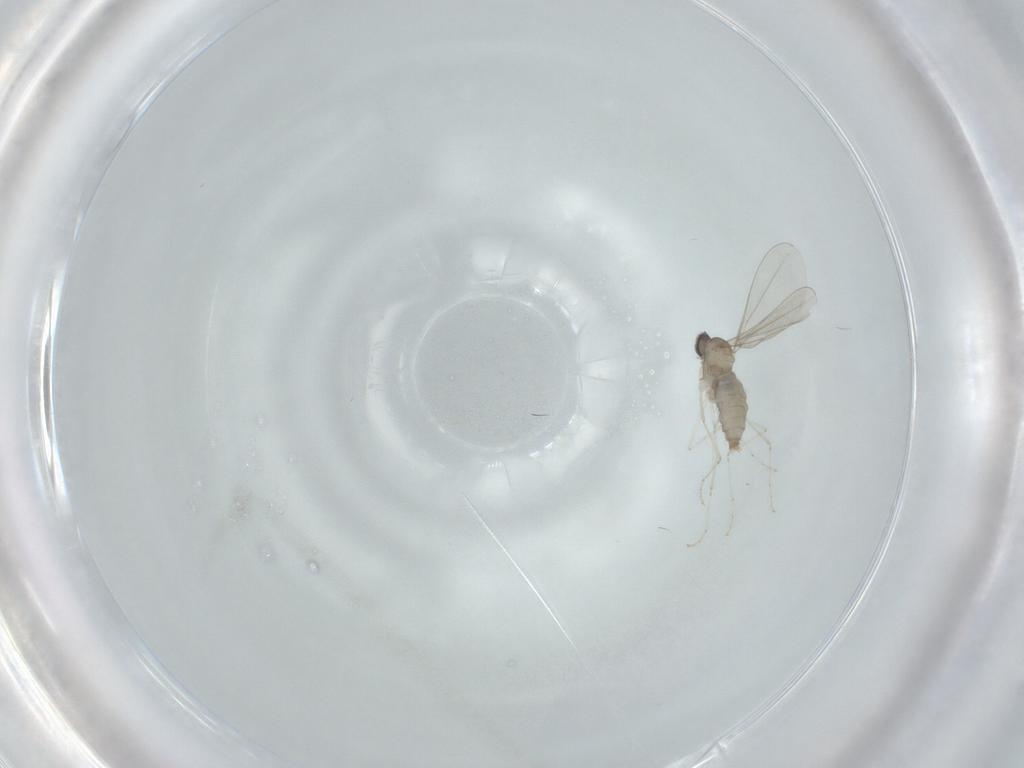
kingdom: Animalia
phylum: Arthropoda
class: Insecta
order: Diptera
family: Cecidomyiidae
